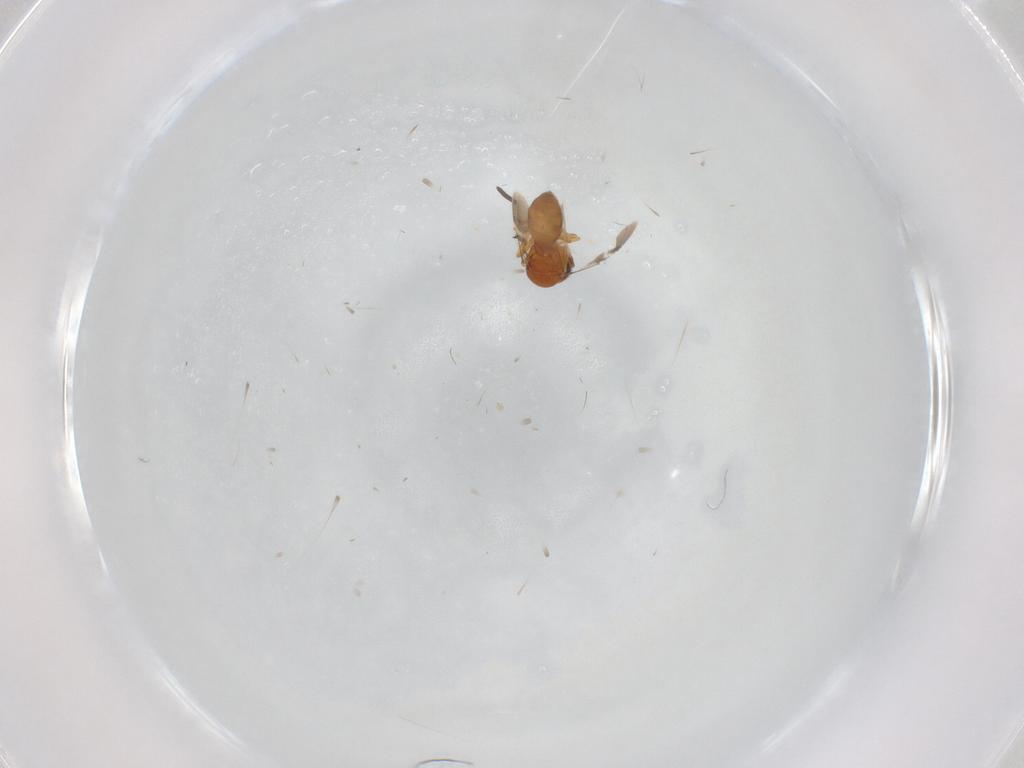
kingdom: Animalia
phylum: Arthropoda
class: Insecta
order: Hymenoptera
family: Scelionidae
